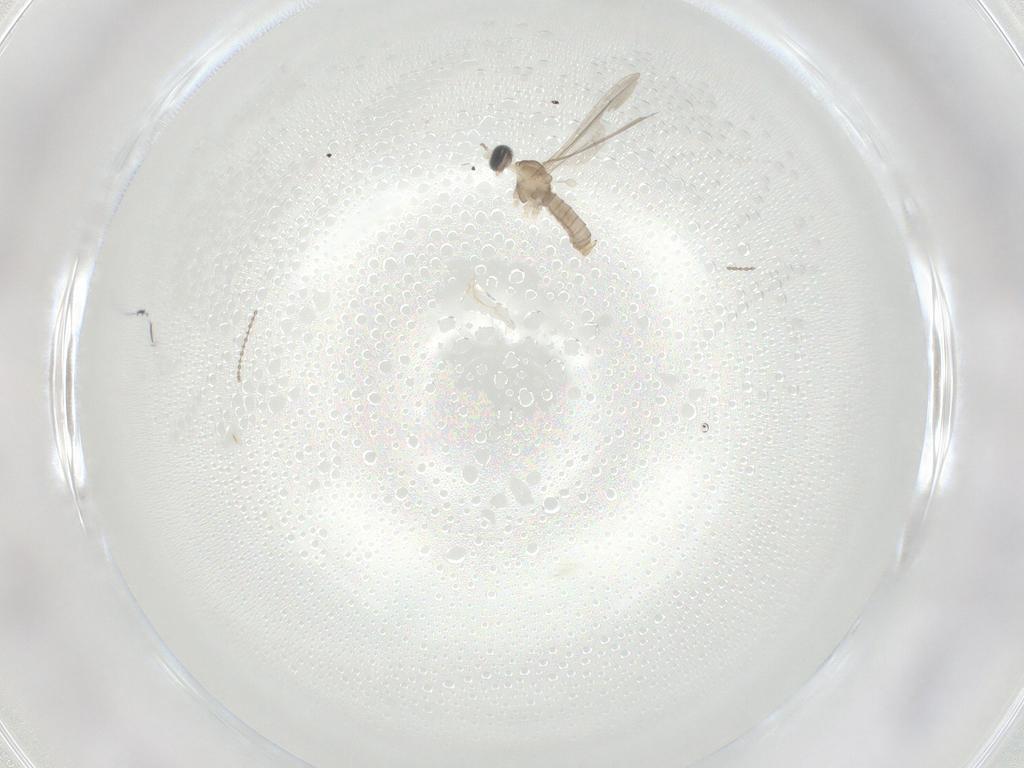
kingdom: Animalia
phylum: Arthropoda
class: Insecta
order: Diptera
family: Cecidomyiidae
